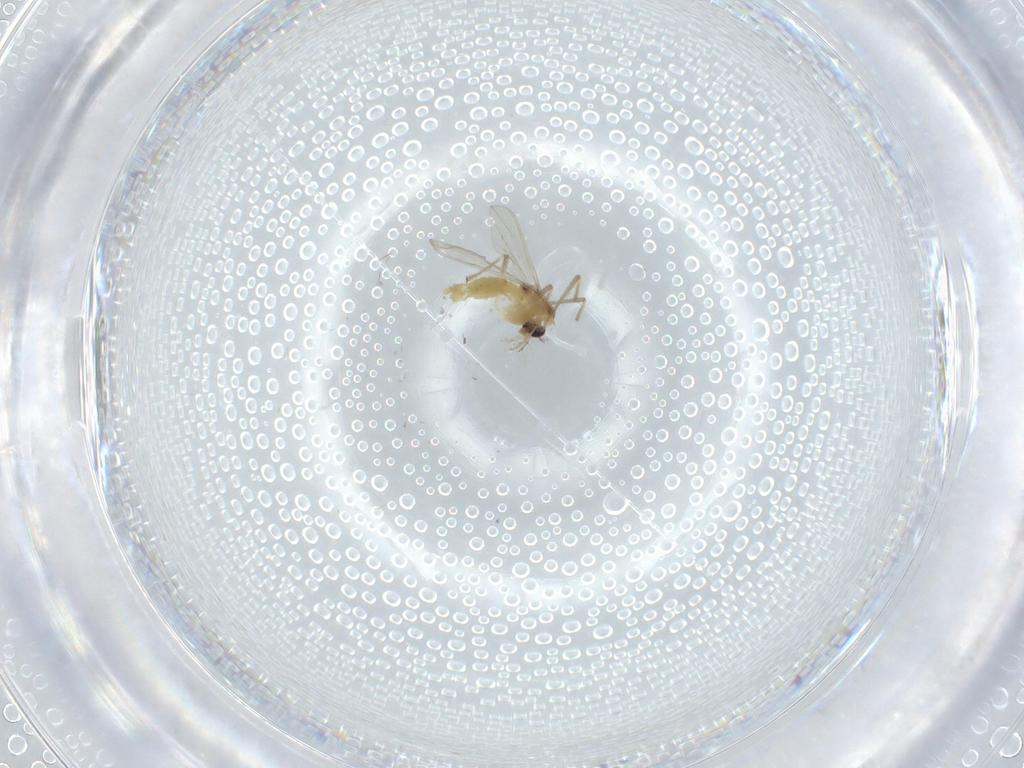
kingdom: Animalia
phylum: Arthropoda
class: Insecta
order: Diptera
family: Chironomidae
